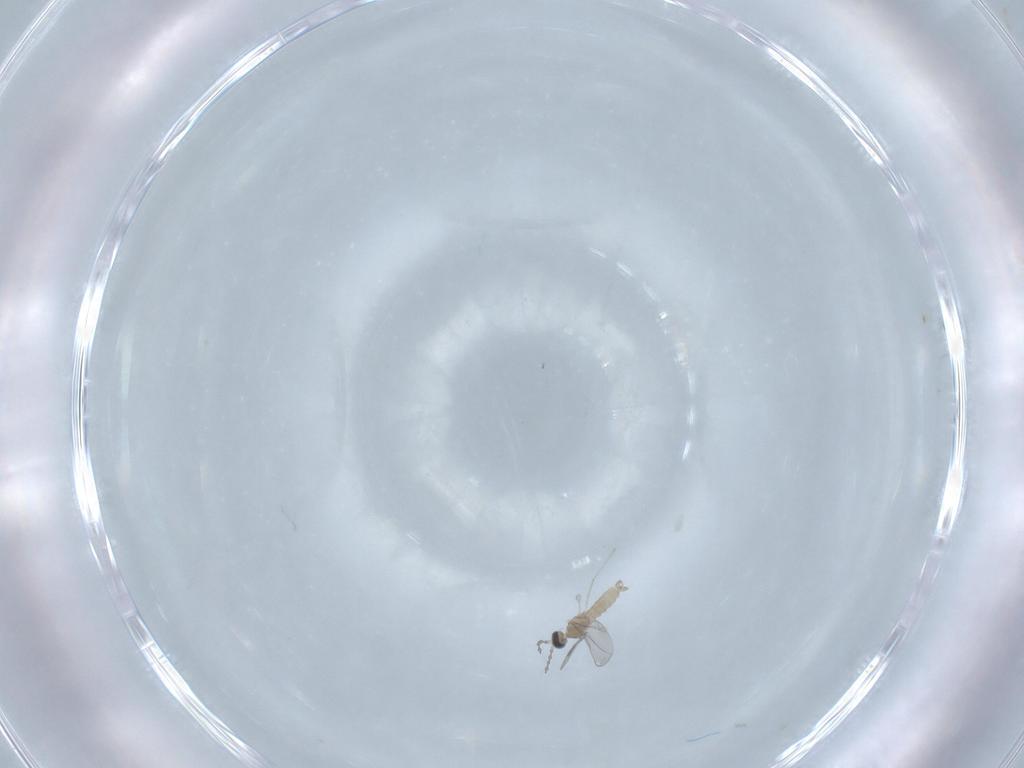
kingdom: Animalia
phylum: Arthropoda
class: Insecta
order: Diptera
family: Cecidomyiidae
